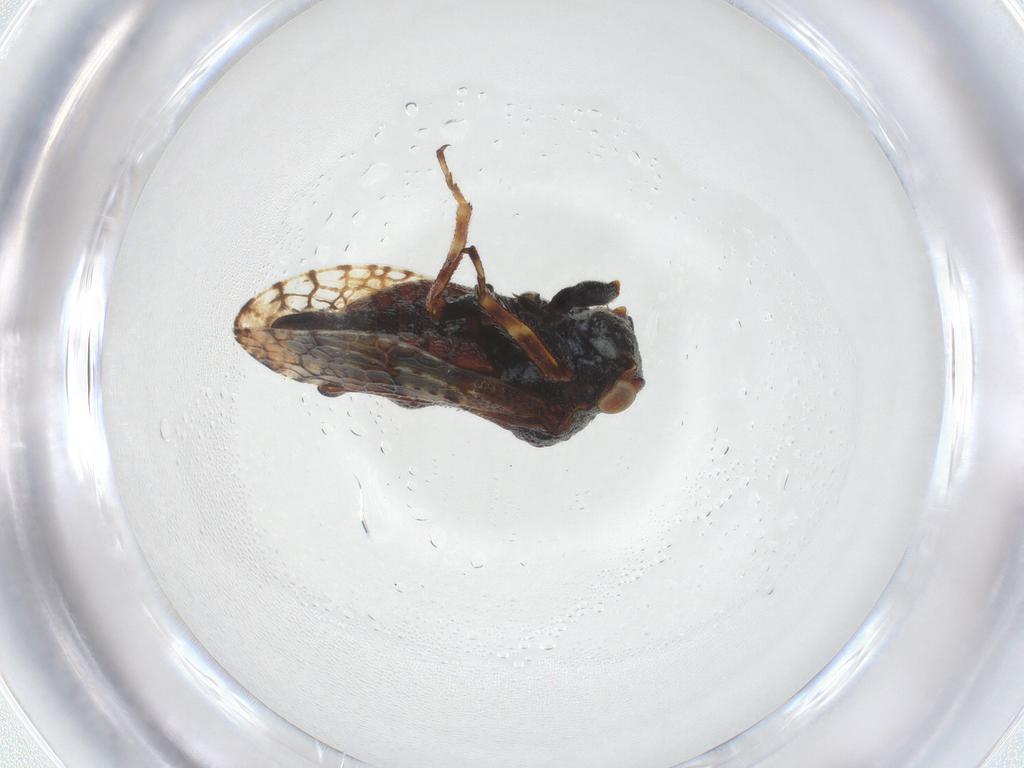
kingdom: Animalia
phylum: Arthropoda
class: Insecta
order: Hemiptera
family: Membracidae
